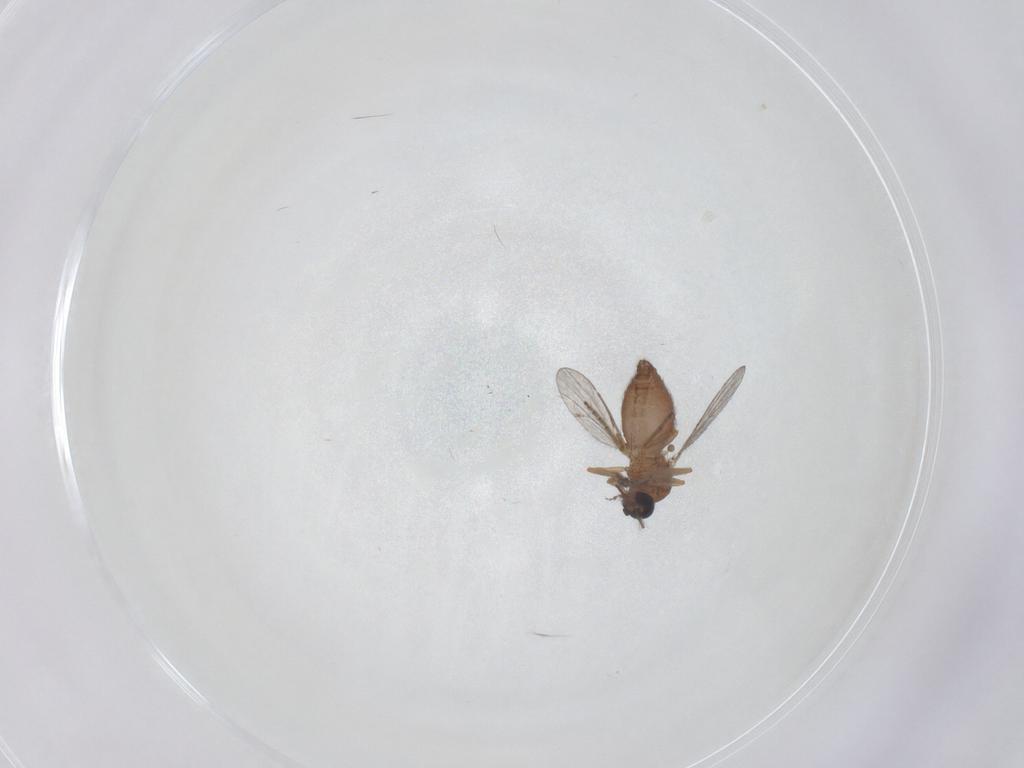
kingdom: Animalia
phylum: Arthropoda
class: Insecta
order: Diptera
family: Ceratopogonidae
